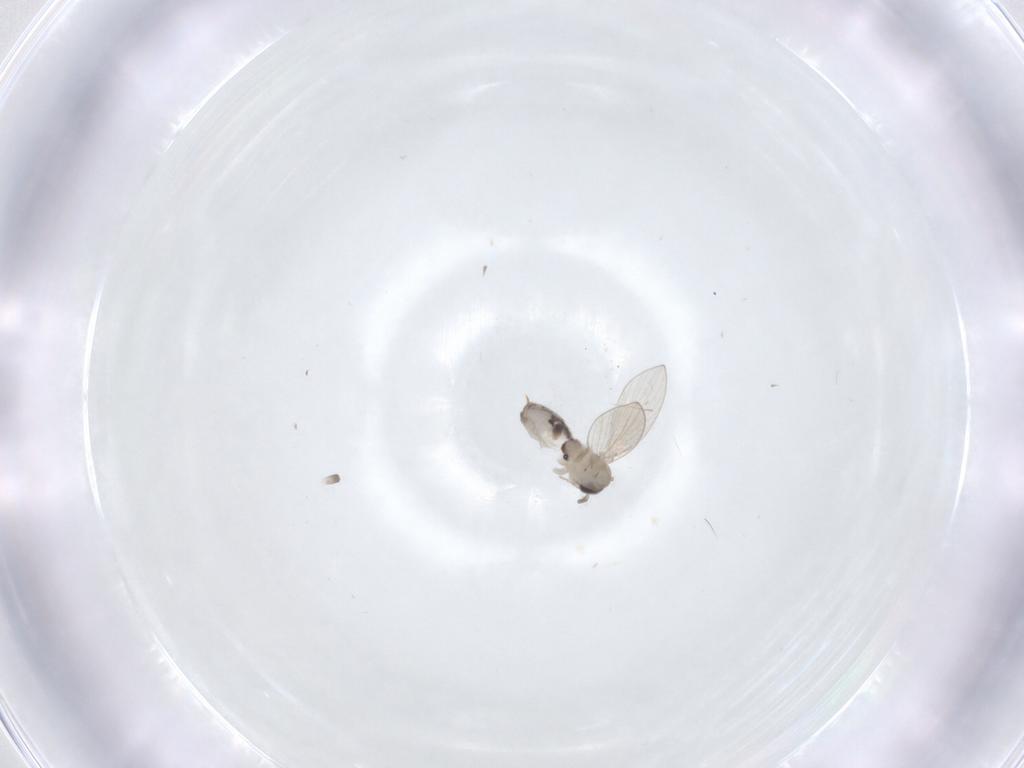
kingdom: Animalia
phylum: Arthropoda
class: Insecta
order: Diptera
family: Psychodidae
